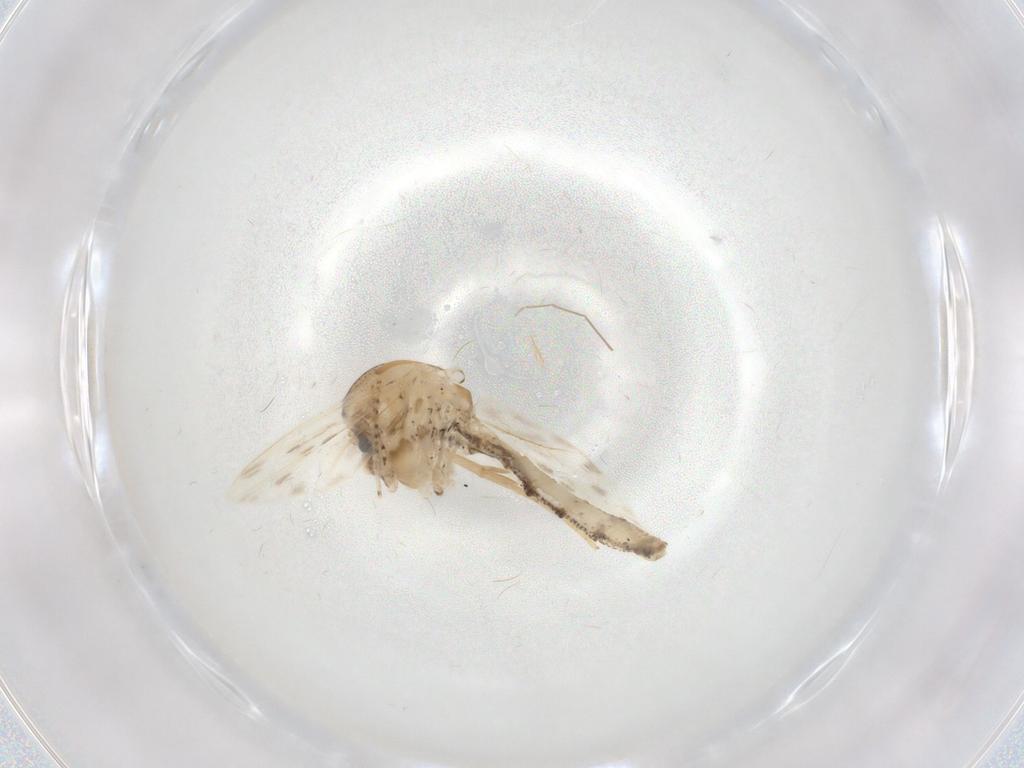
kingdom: Animalia
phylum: Arthropoda
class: Insecta
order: Diptera
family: Chaoboridae
